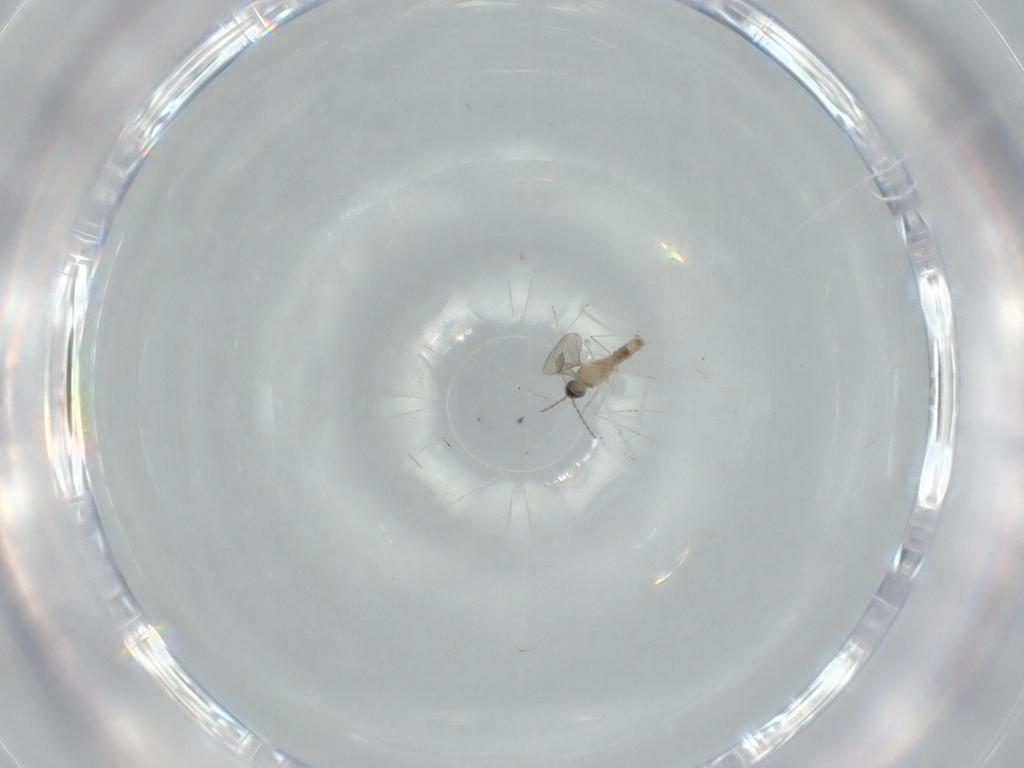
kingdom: Animalia
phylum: Arthropoda
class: Insecta
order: Diptera
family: Cecidomyiidae
